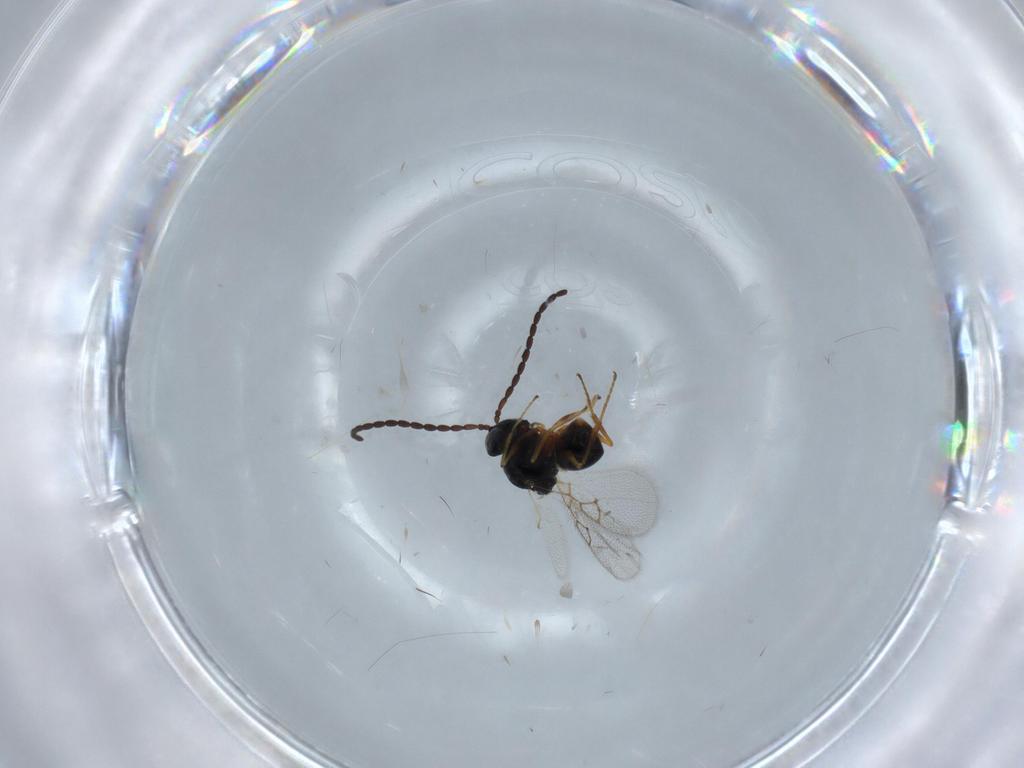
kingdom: Animalia
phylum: Arthropoda
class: Insecta
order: Hymenoptera
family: Figitidae
